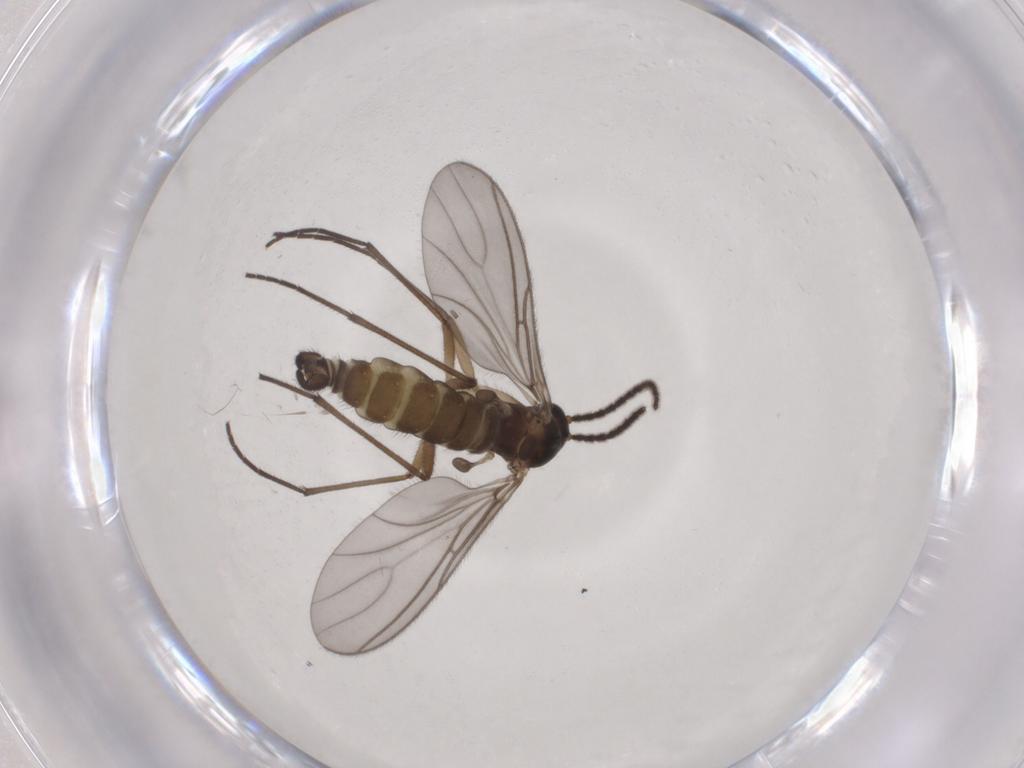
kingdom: Animalia
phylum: Arthropoda
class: Insecta
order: Diptera
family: Sciaridae
